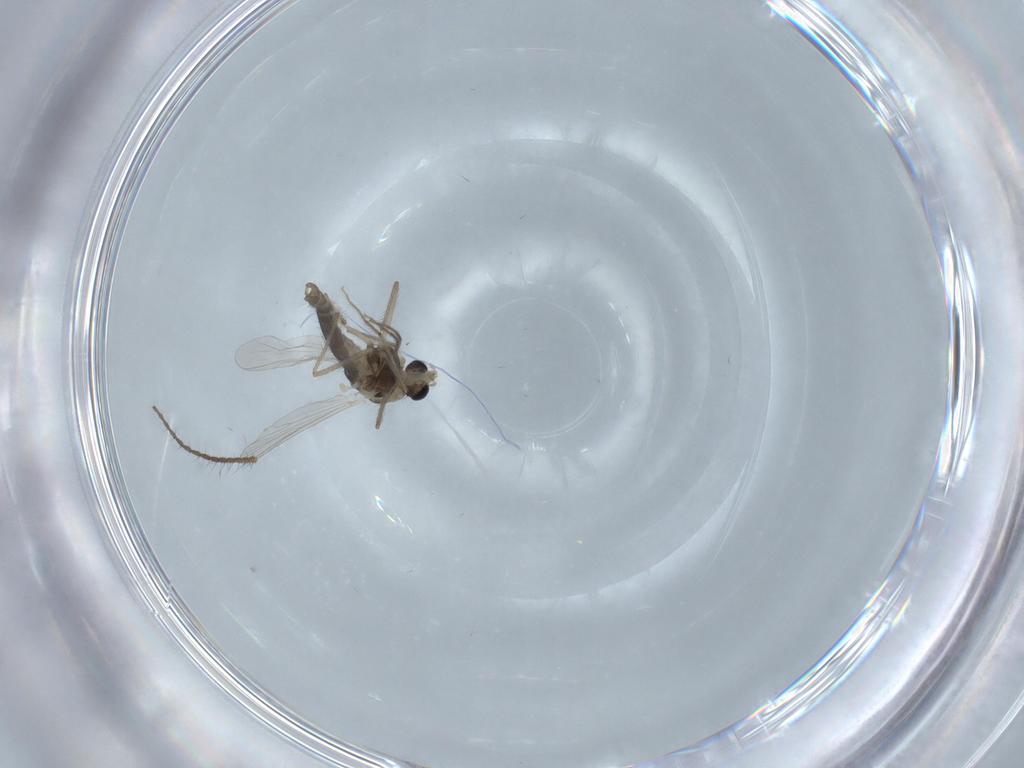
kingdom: Animalia
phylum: Arthropoda
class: Insecta
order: Diptera
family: Chironomidae
